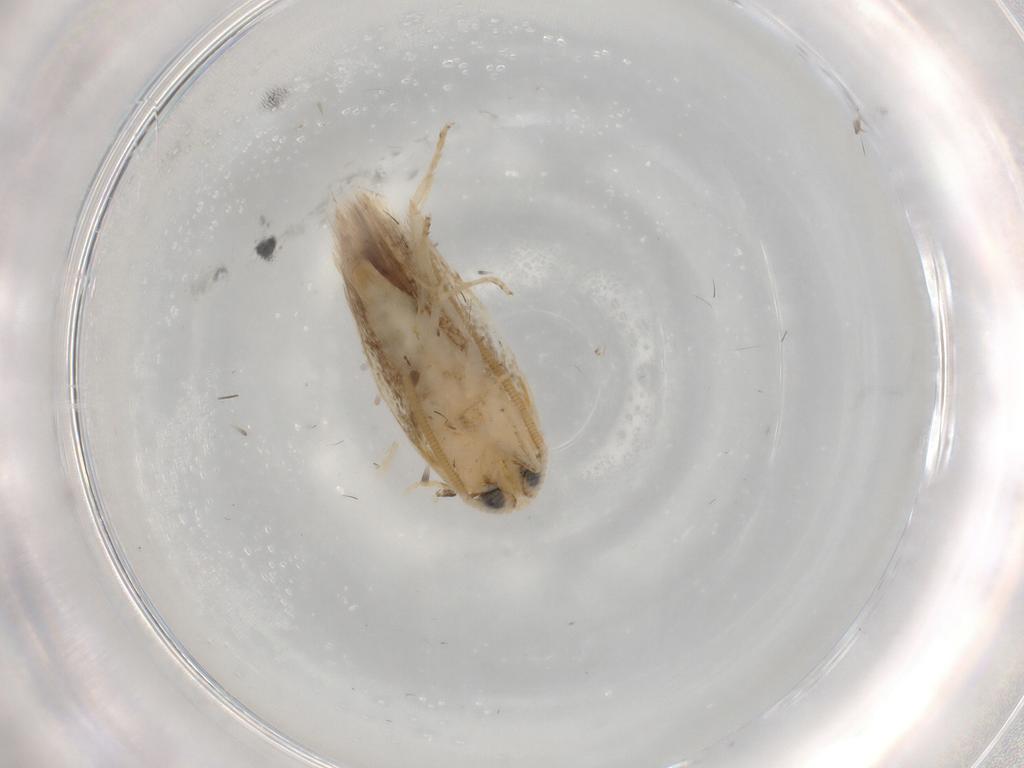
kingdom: Animalia
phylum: Arthropoda
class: Insecta
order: Lepidoptera
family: Opostegidae
